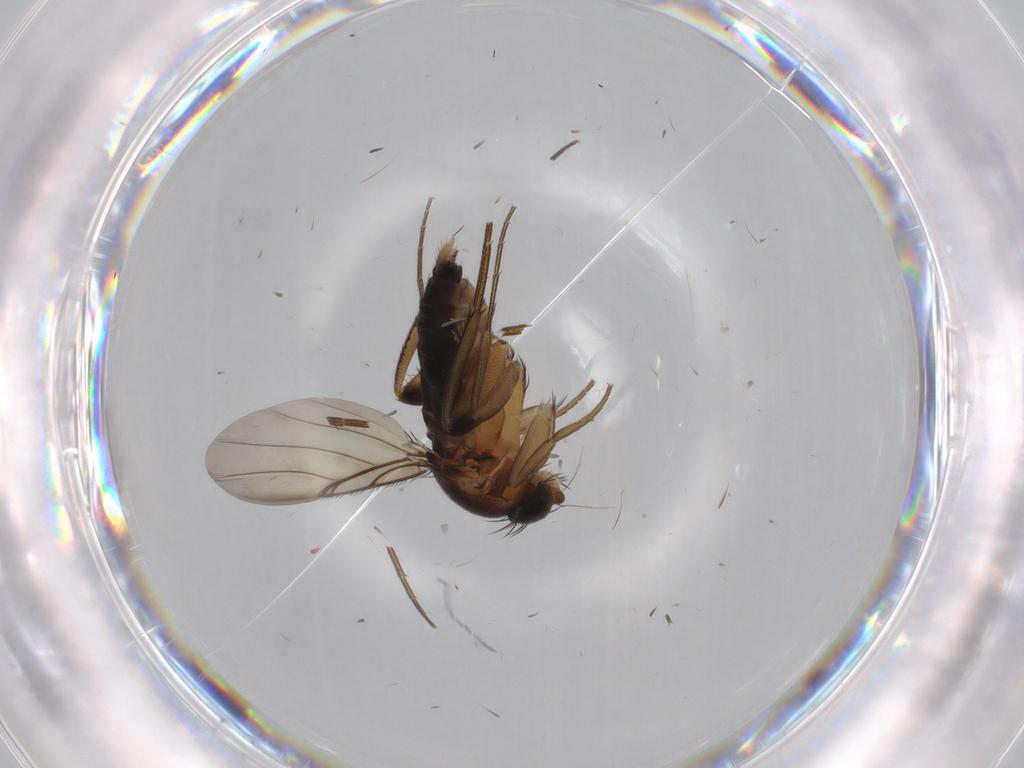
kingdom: Animalia
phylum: Arthropoda
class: Insecta
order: Diptera
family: Phoridae
